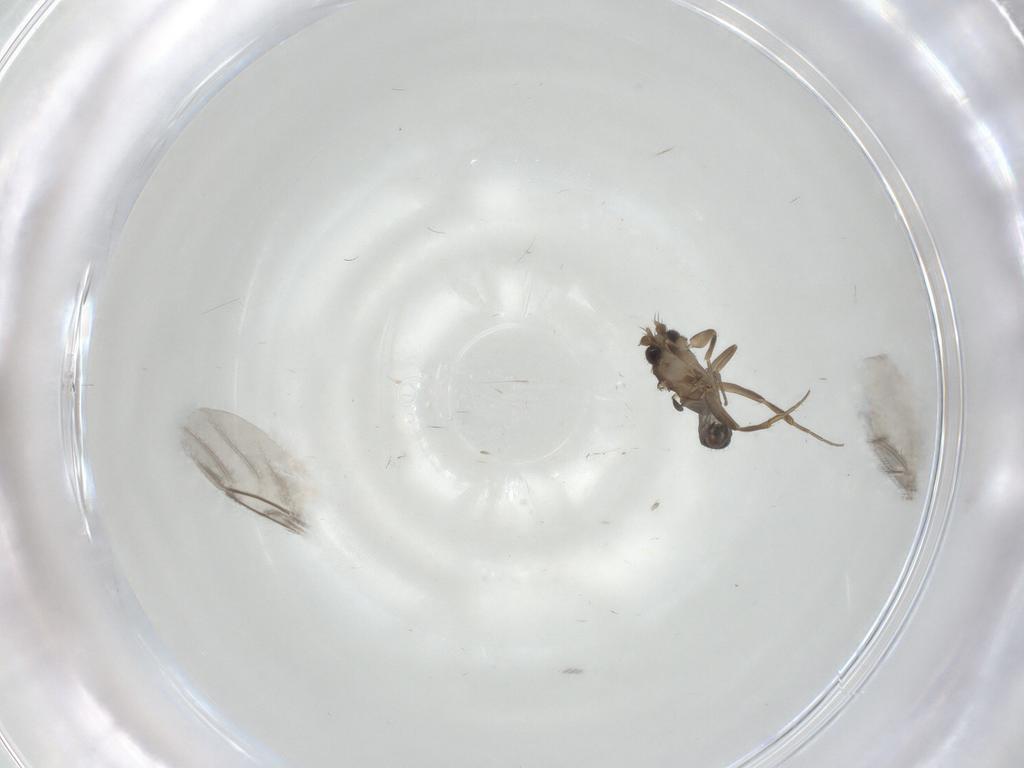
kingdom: Animalia
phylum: Arthropoda
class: Insecta
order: Diptera
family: Phoridae
